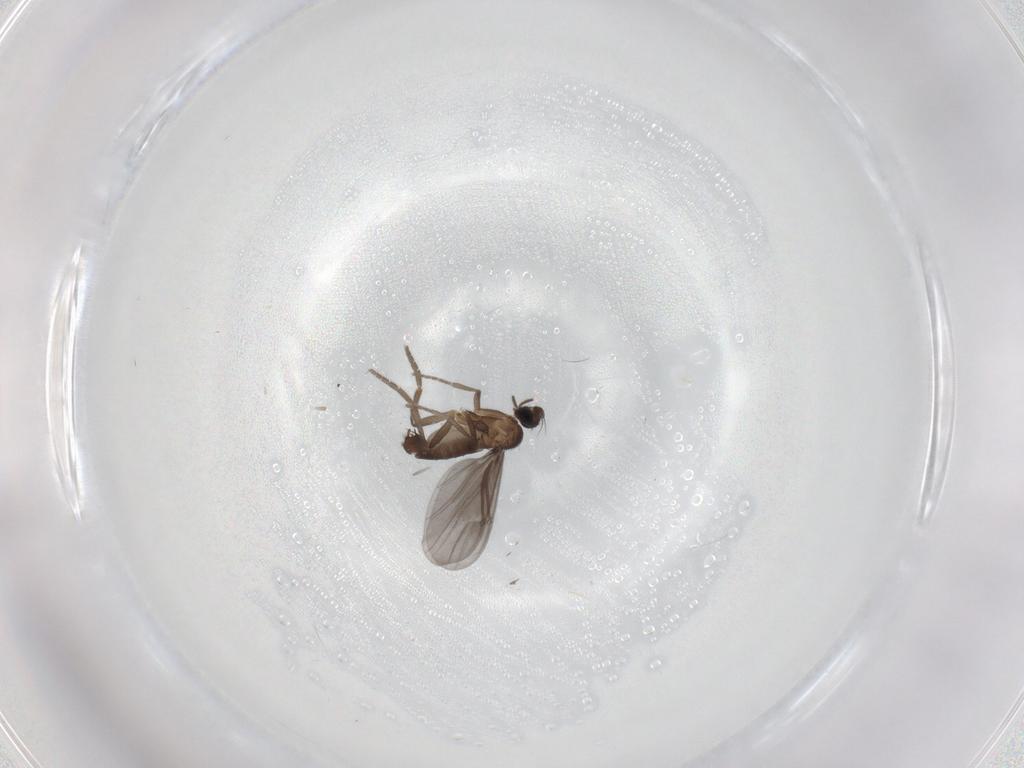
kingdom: Animalia
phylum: Arthropoda
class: Insecta
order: Diptera
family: Phoridae
